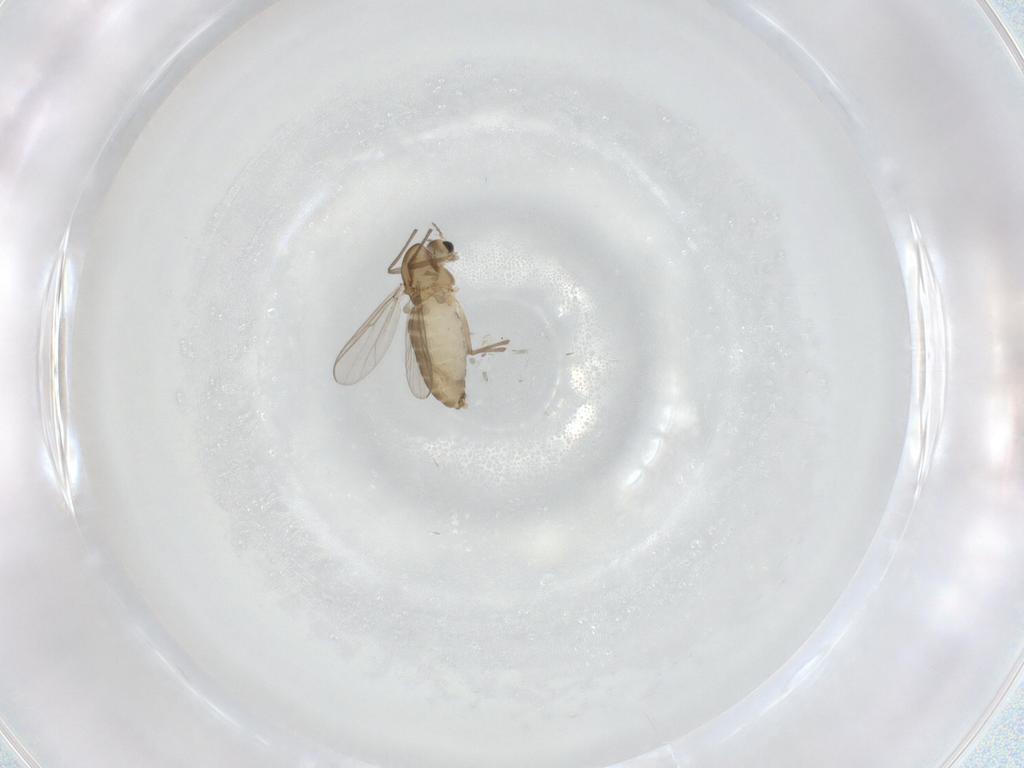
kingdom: Animalia
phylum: Arthropoda
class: Insecta
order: Diptera
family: Chironomidae
